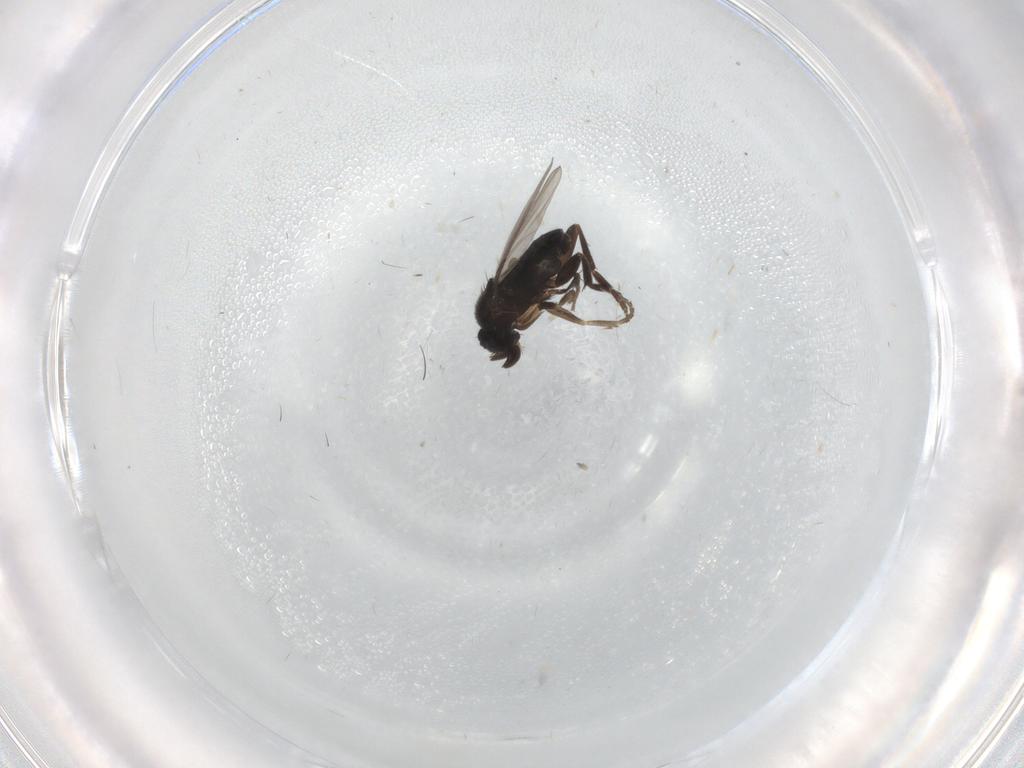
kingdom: Animalia
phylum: Arthropoda
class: Insecta
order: Diptera
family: Phoridae
